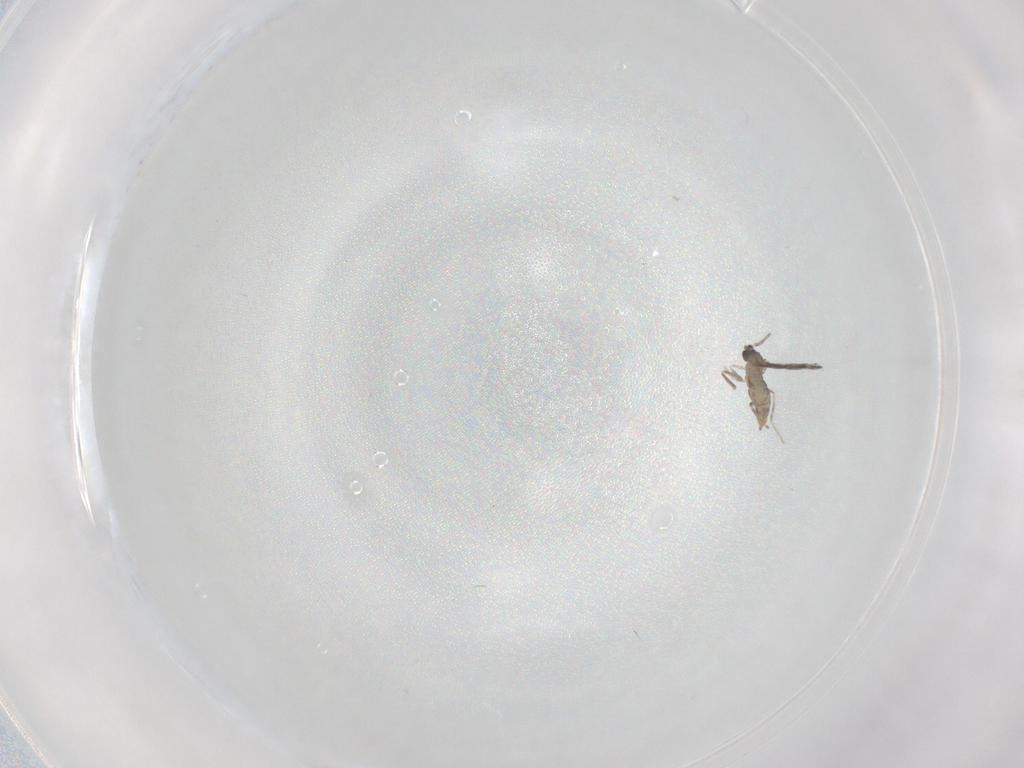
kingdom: Animalia
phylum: Arthropoda
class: Insecta
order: Diptera
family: Cecidomyiidae
